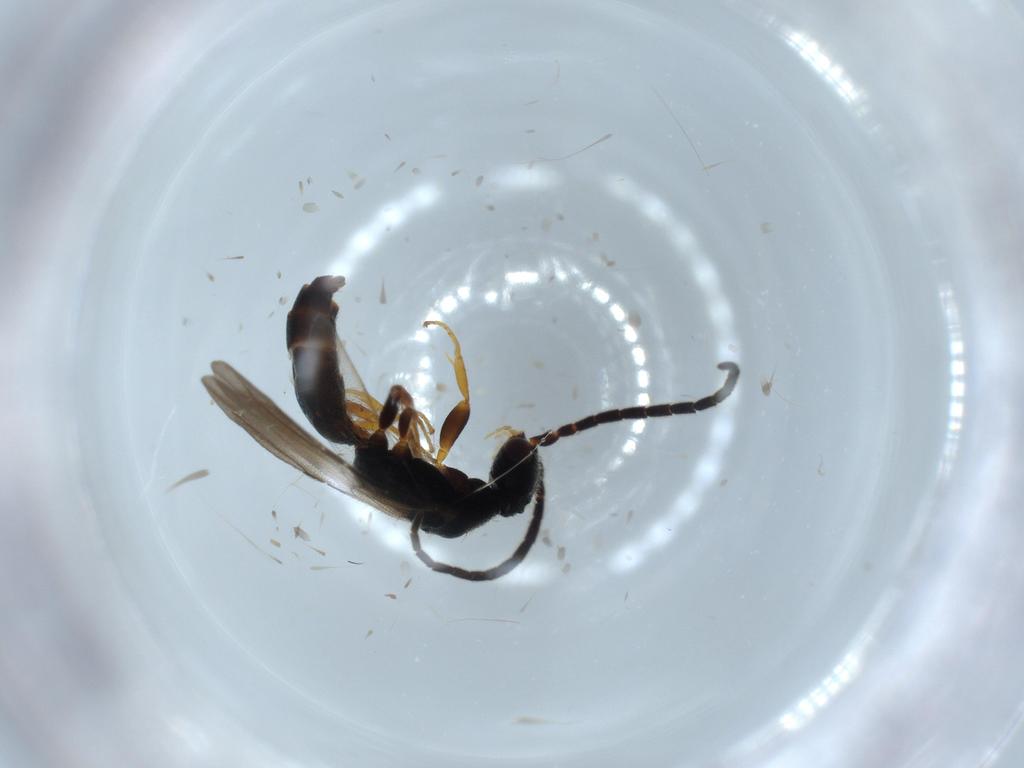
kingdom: Animalia
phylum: Arthropoda
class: Insecta
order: Hymenoptera
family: Bethylidae
